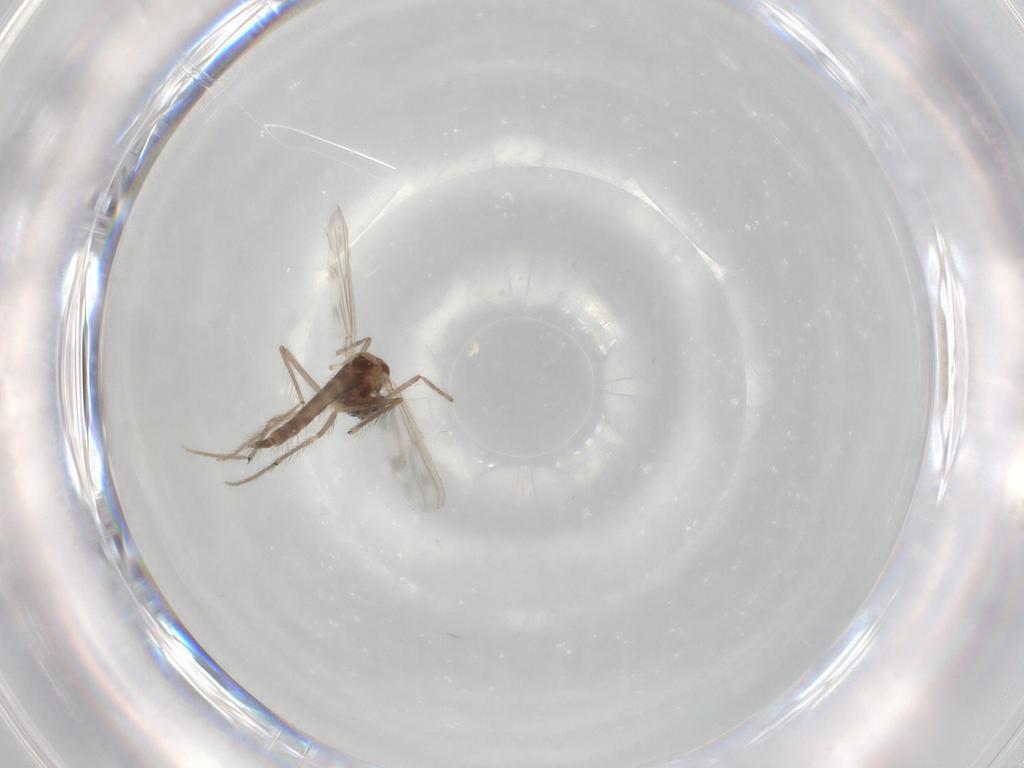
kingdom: Animalia
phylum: Arthropoda
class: Insecta
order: Diptera
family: Chironomidae
